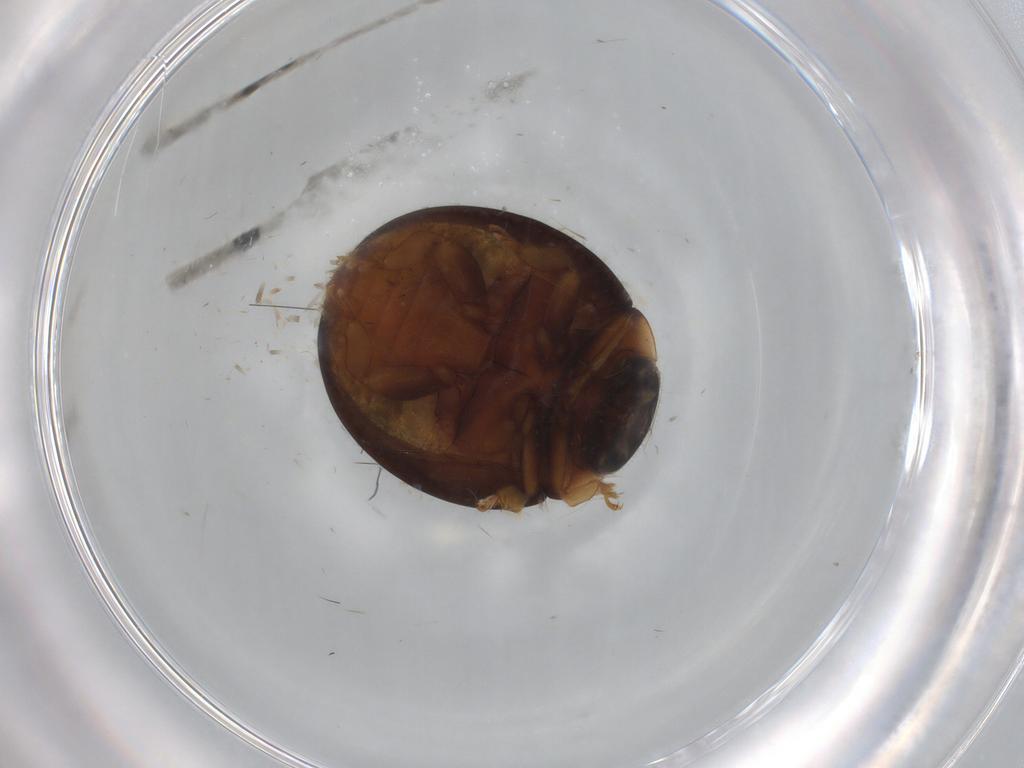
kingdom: Animalia
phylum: Arthropoda
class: Insecta
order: Coleoptera
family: Coccinellidae
